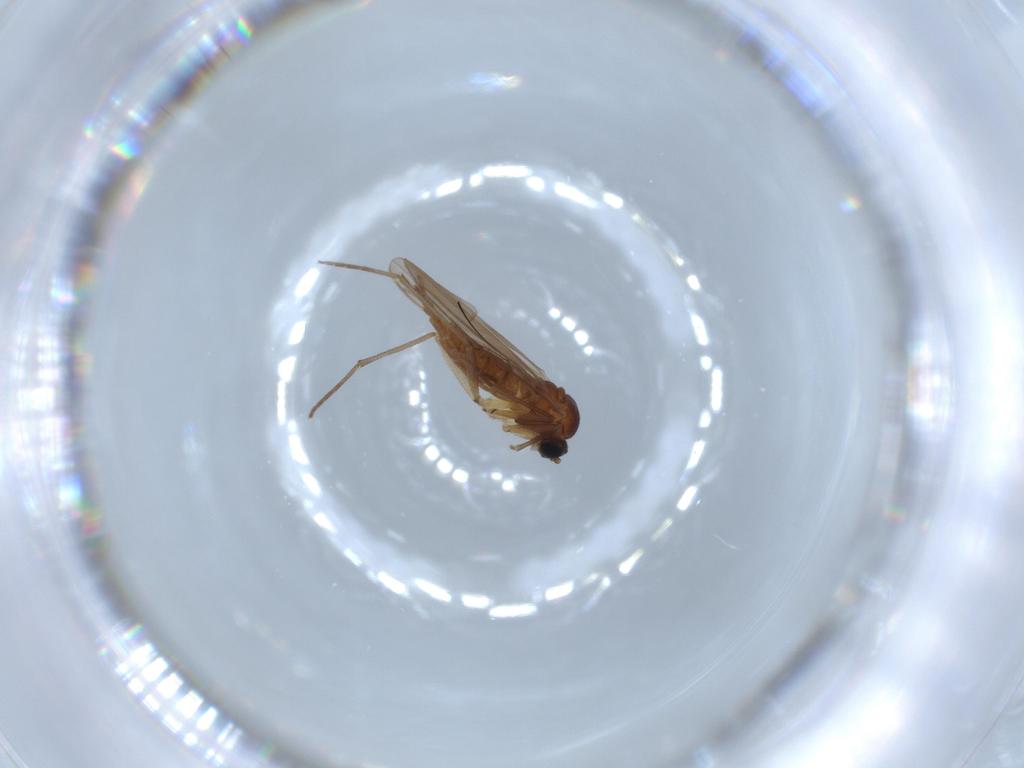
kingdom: Animalia
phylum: Arthropoda
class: Insecta
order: Diptera
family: Sciaridae
